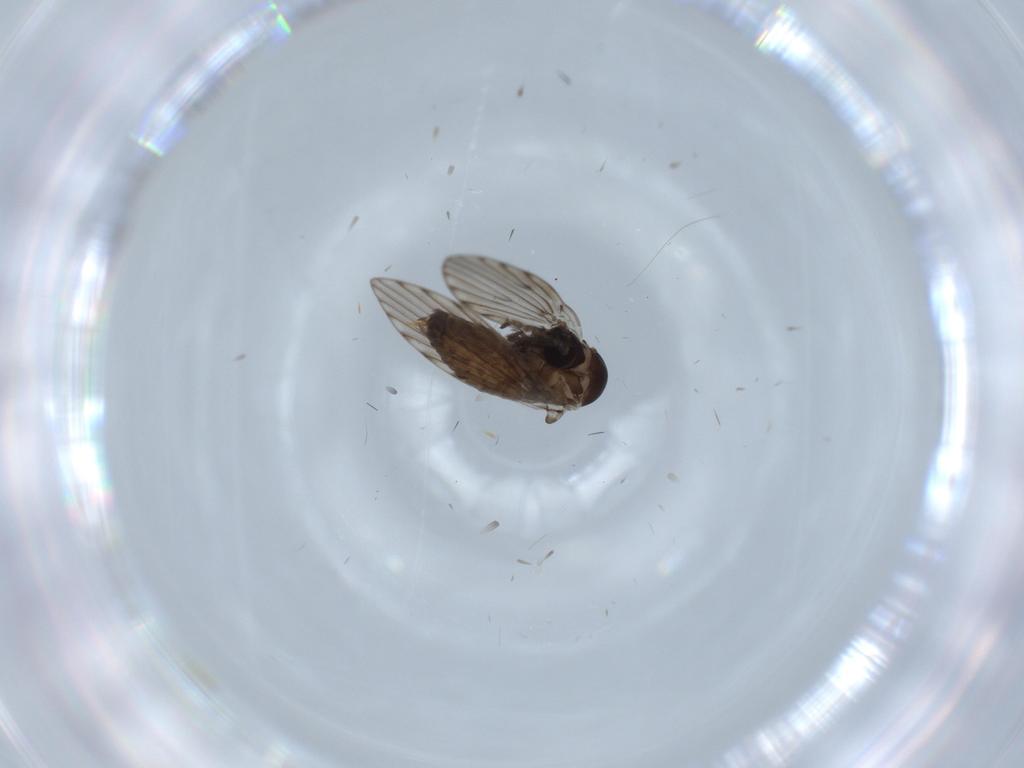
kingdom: Animalia
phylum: Arthropoda
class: Insecta
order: Diptera
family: Psychodidae
